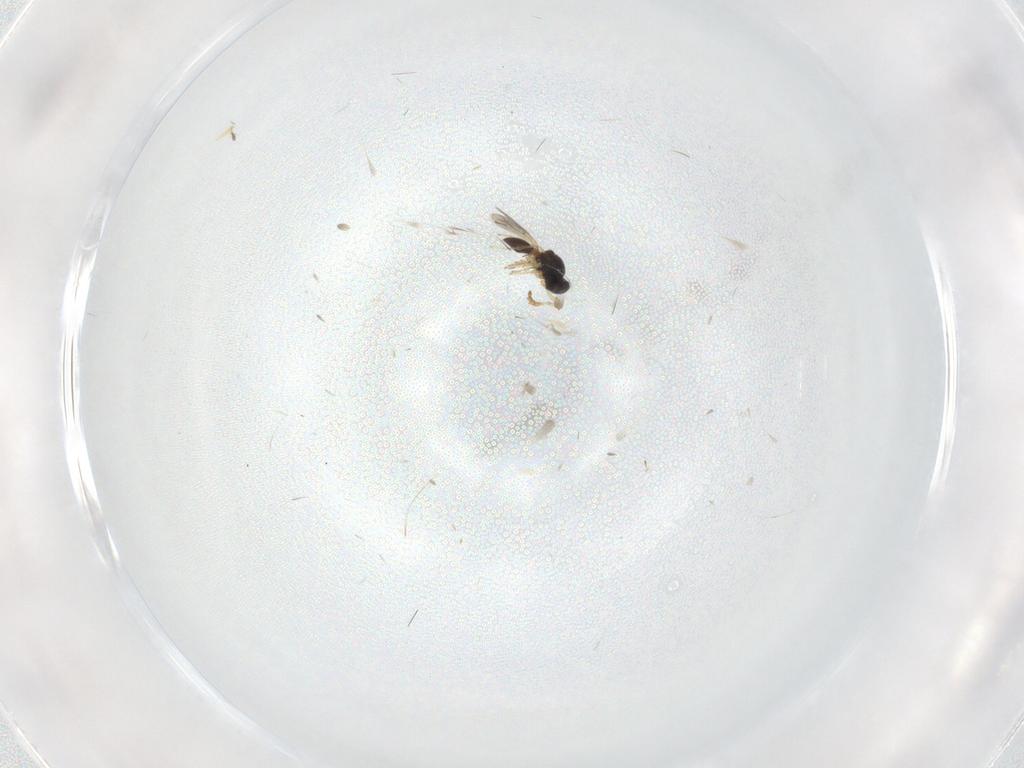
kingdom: Animalia
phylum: Arthropoda
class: Insecta
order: Hymenoptera
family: Platygastridae
